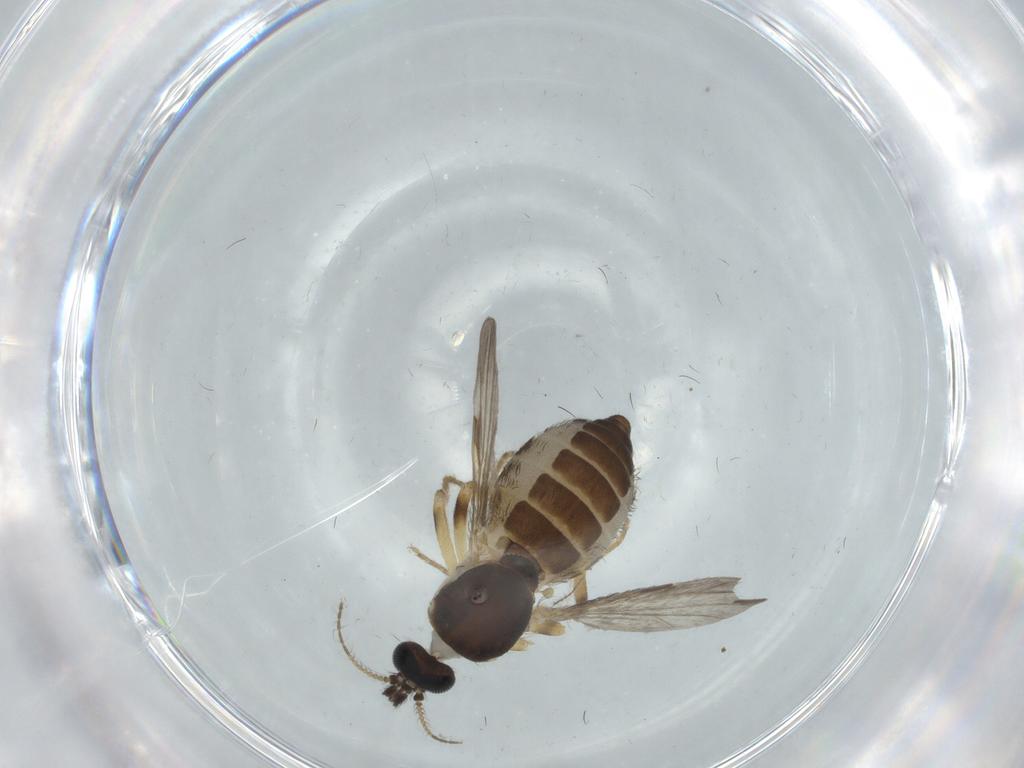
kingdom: Animalia
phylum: Arthropoda
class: Insecta
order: Diptera
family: Ceratopogonidae
